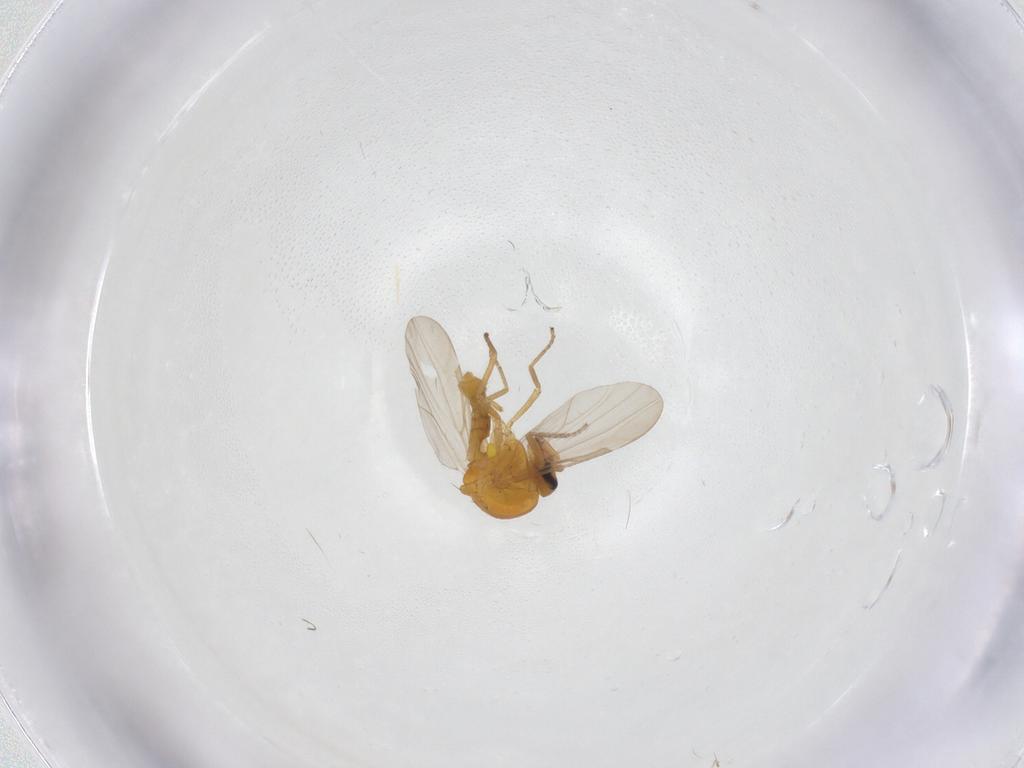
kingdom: Animalia
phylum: Arthropoda
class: Insecta
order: Diptera
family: Ceratopogonidae
